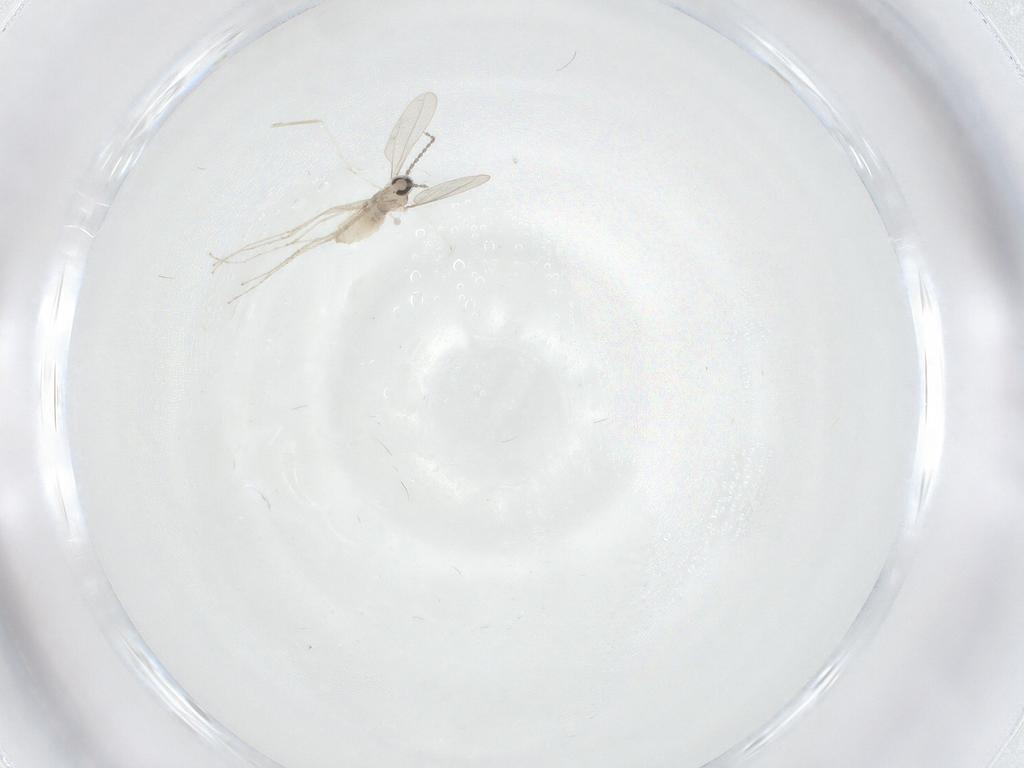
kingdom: Animalia
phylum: Arthropoda
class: Insecta
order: Diptera
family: Cecidomyiidae
